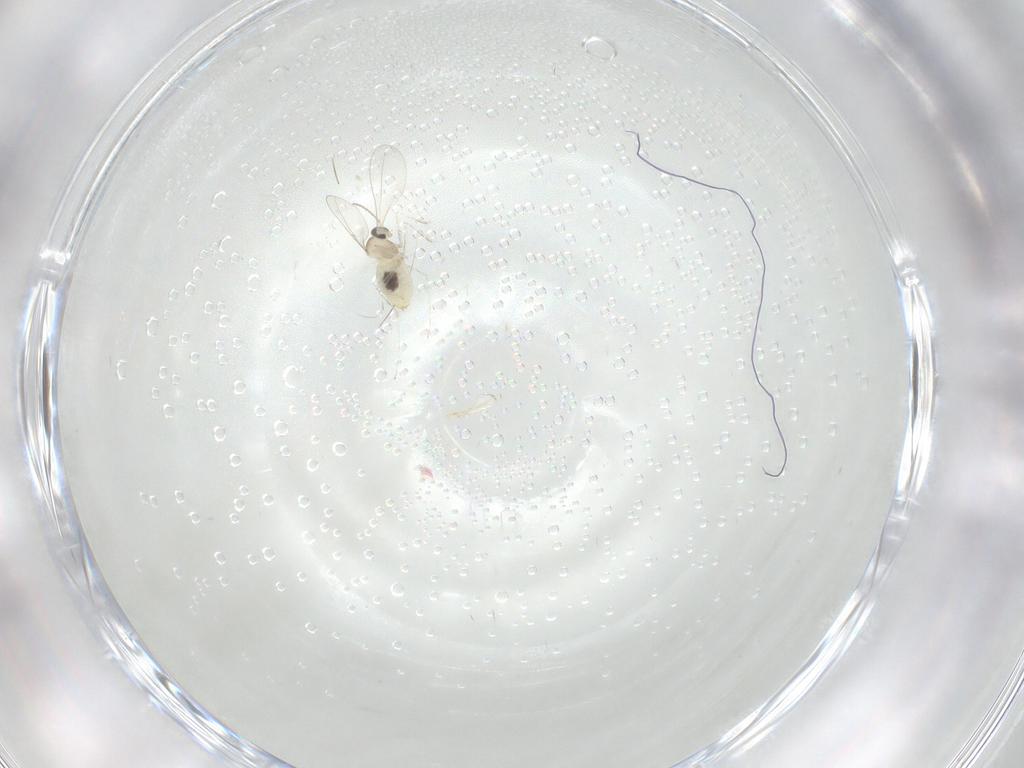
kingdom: Animalia
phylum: Arthropoda
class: Insecta
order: Diptera
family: Cecidomyiidae
